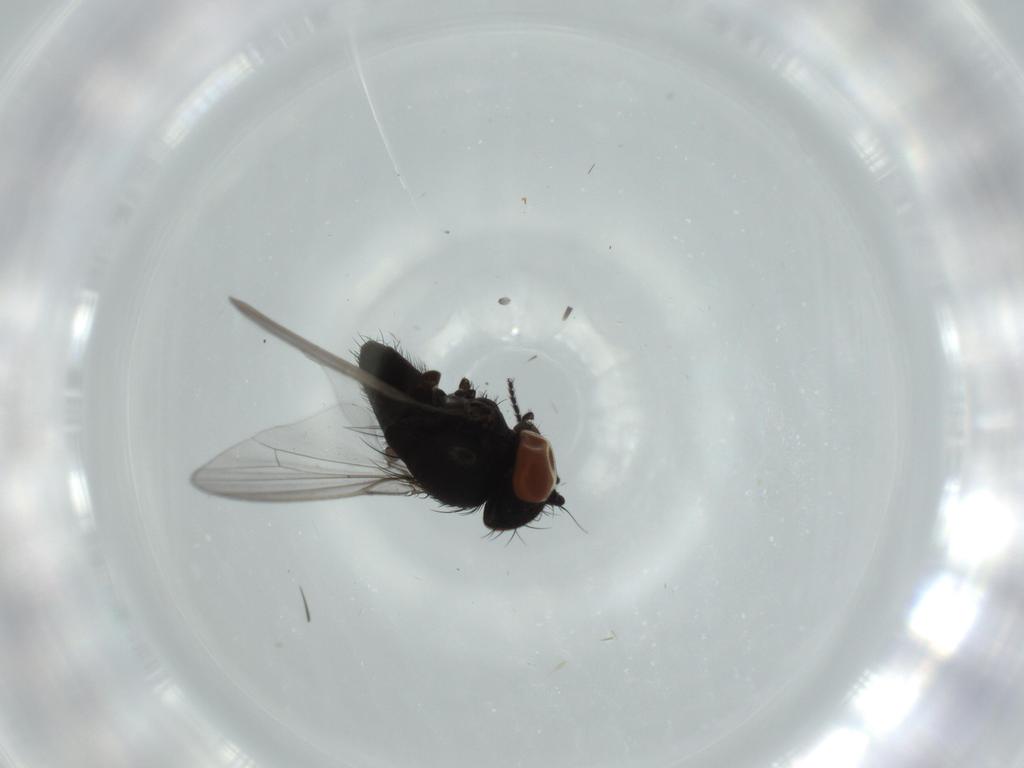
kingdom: Animalia
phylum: Arthropoda
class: Insecta
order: Diptera
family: Milichiidae
